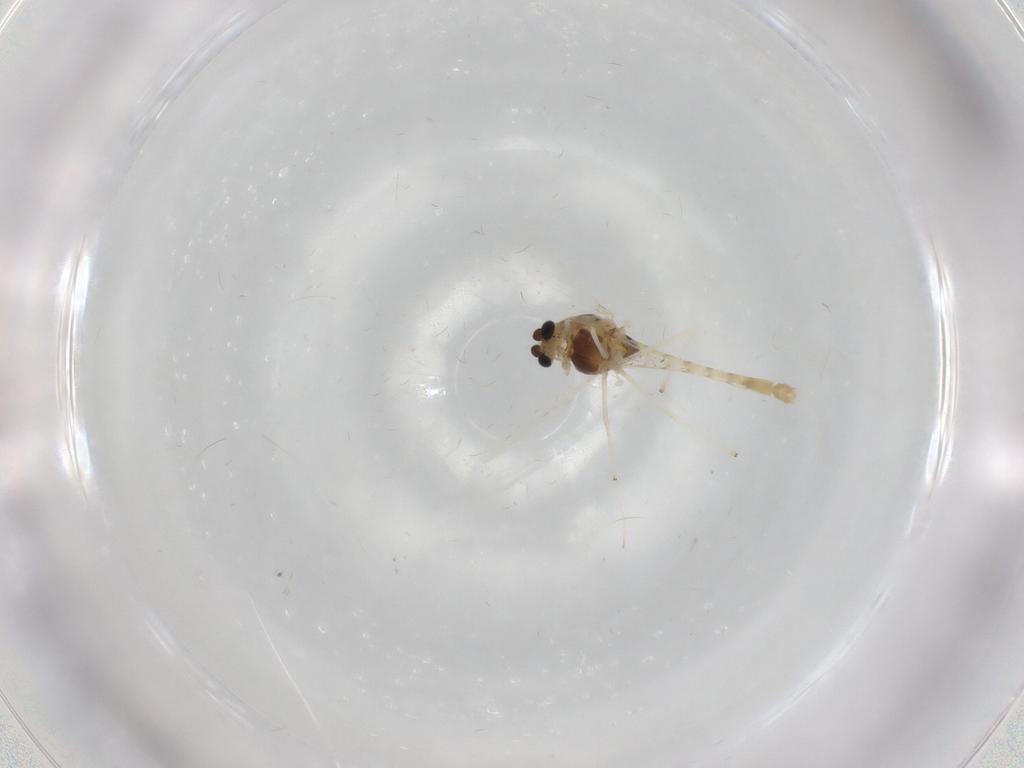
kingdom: Animalia
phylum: Arthropoda
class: Insecta
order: Diptera
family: Chironomidae
